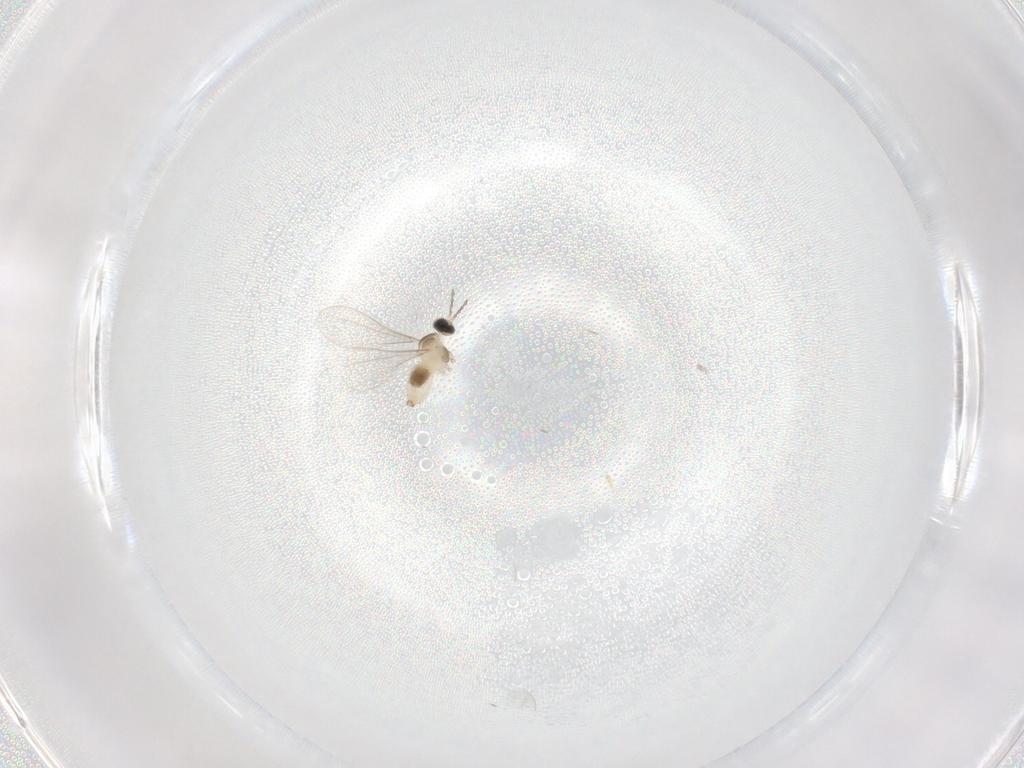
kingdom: Animalia
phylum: Arthropoda
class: Insecta
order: Diptera
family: Cecidomyiidae
